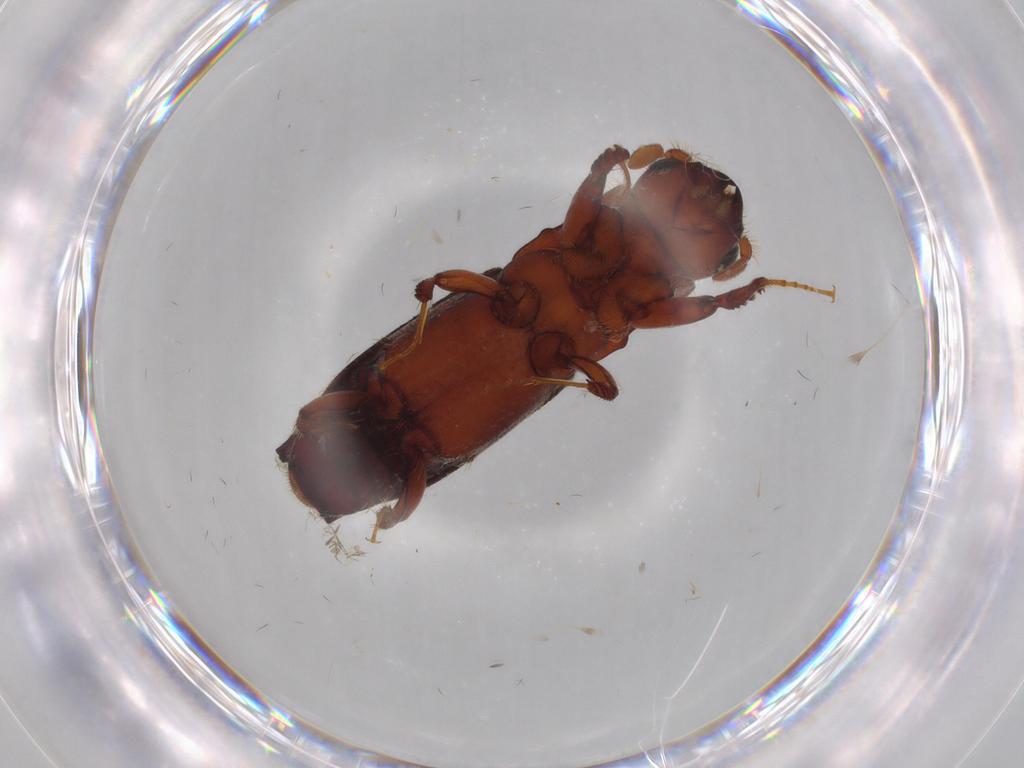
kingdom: Animalia
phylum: Arthropoda
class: Insecta
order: Coleoptera
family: Curculionidae
